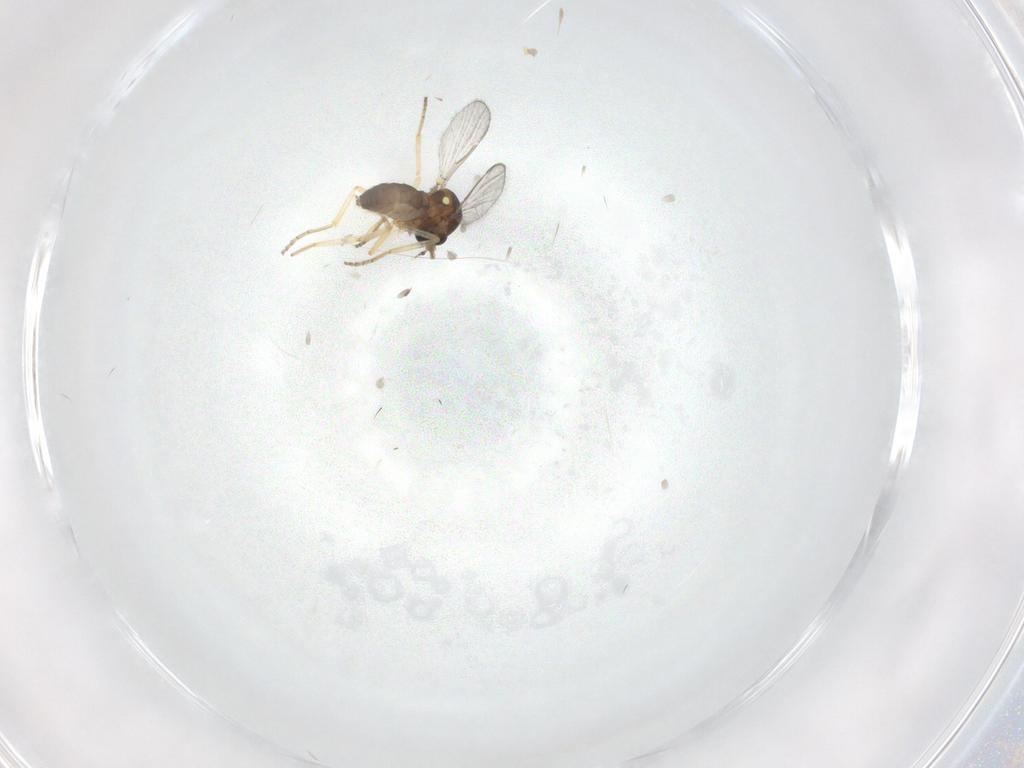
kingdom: Animalia
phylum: Arthropoda
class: Insecta
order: Diptera
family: Ceratopogonidae
